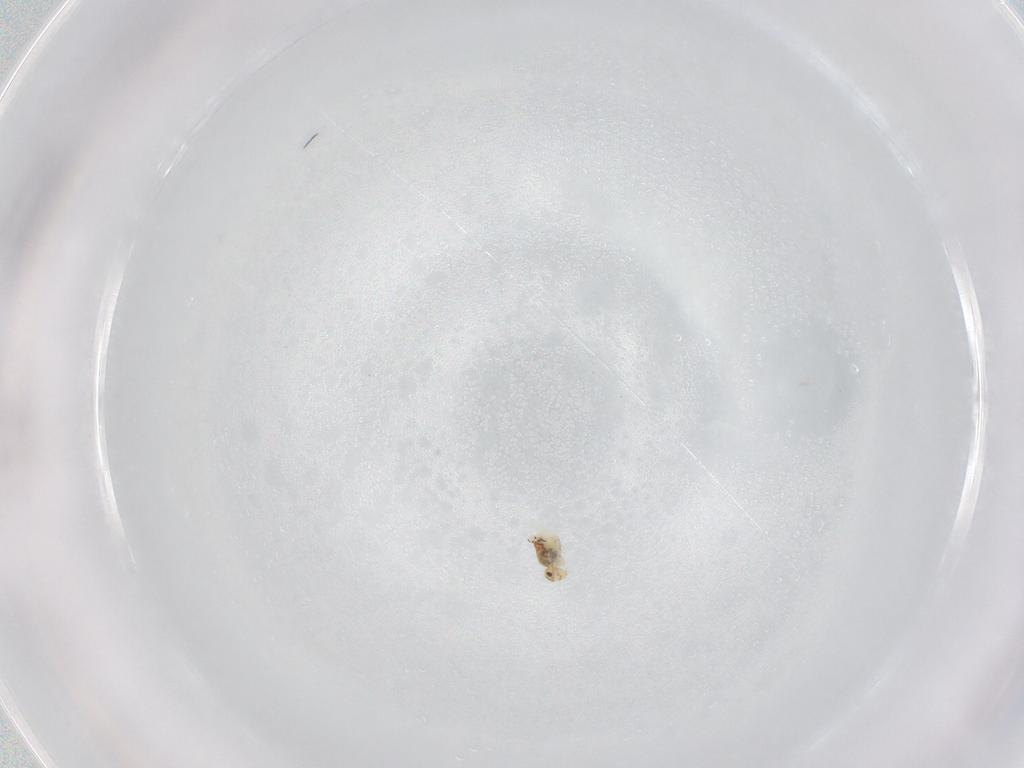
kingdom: Animalia
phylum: Arthropoda
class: Collembola
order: Symphypleona
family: Bourletiellidae
